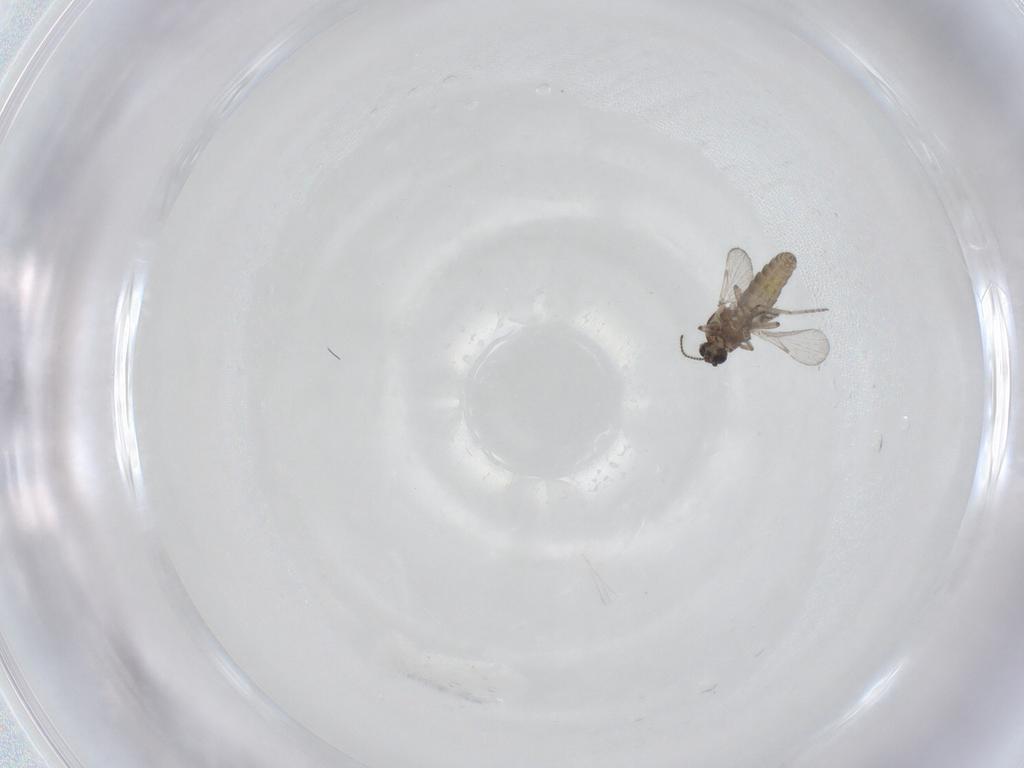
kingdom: Animalia
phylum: Arthropoda
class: Insecta
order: Diptera
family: Ceratopogonidae
